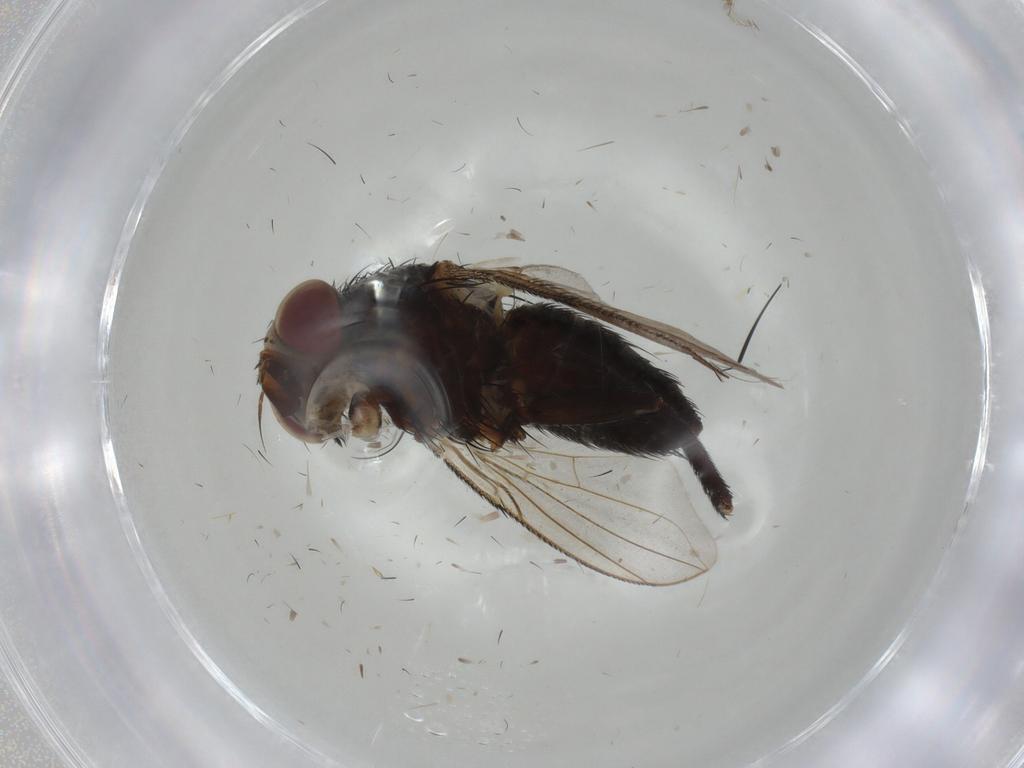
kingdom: Animalia
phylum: Arthropoda
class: Insecta
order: Diptera
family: Tachinidae
